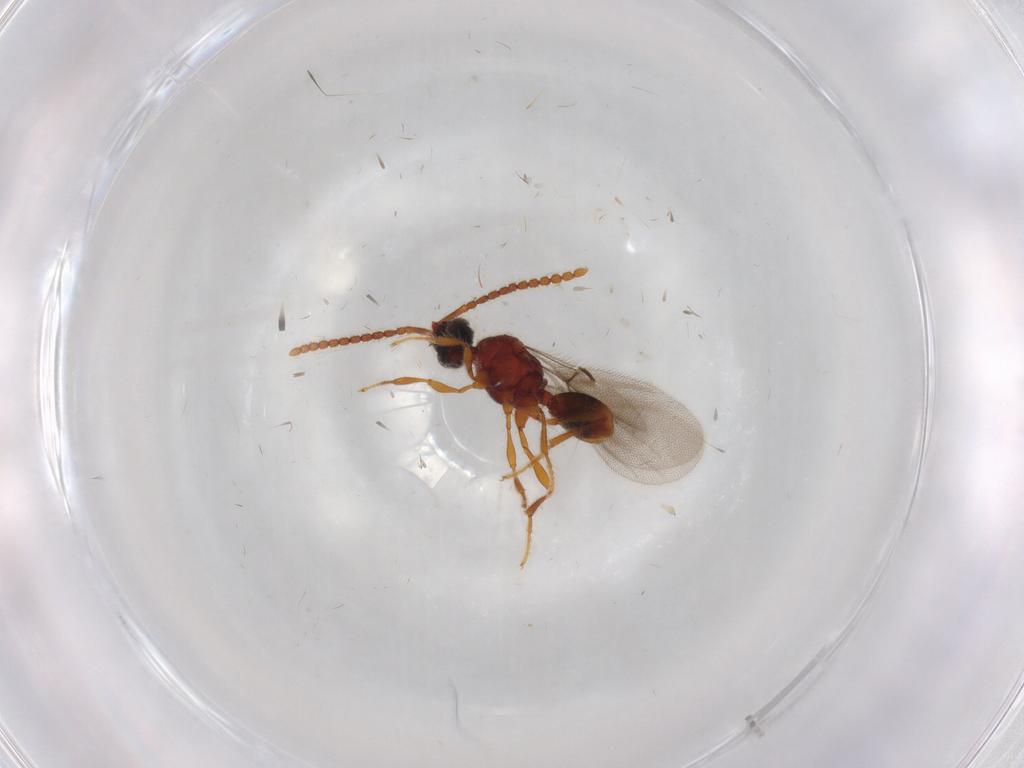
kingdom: Animalia
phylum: Arthropoda
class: Insecta
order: Hymenoptera
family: Diapriidae
